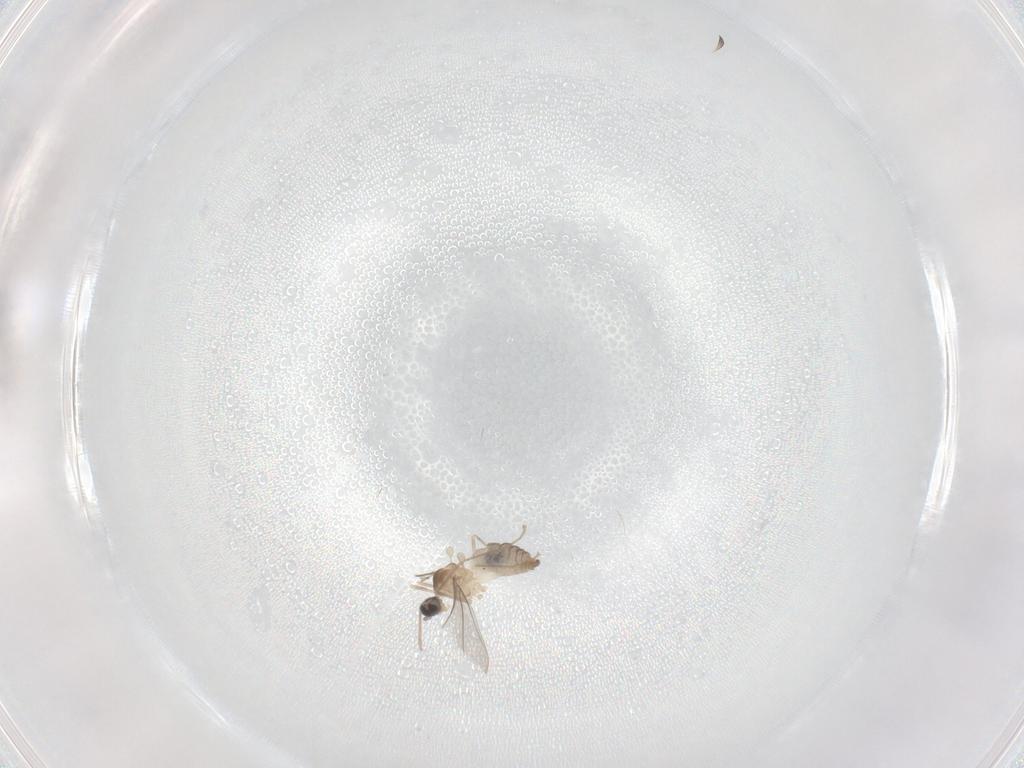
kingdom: Animalia
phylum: Arthropoda
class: Insecta
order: Diptera
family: Cecidomyiidae
